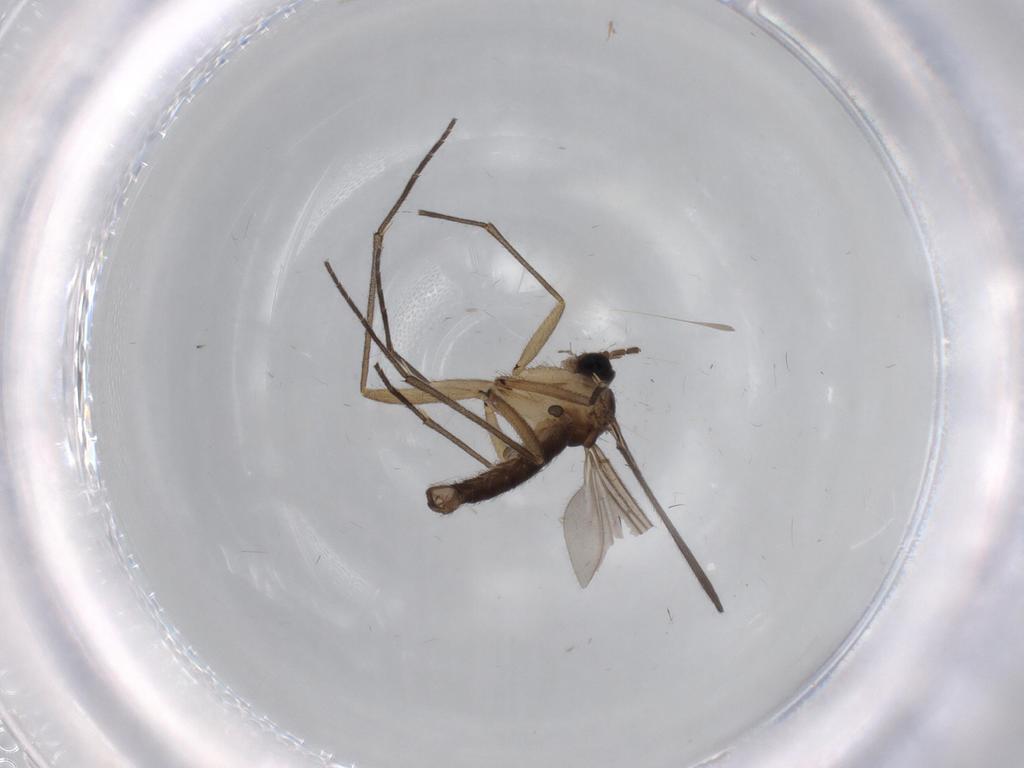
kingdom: Animalia
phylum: Arthropoda
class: Insecta
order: Diptera
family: Sciaridae
